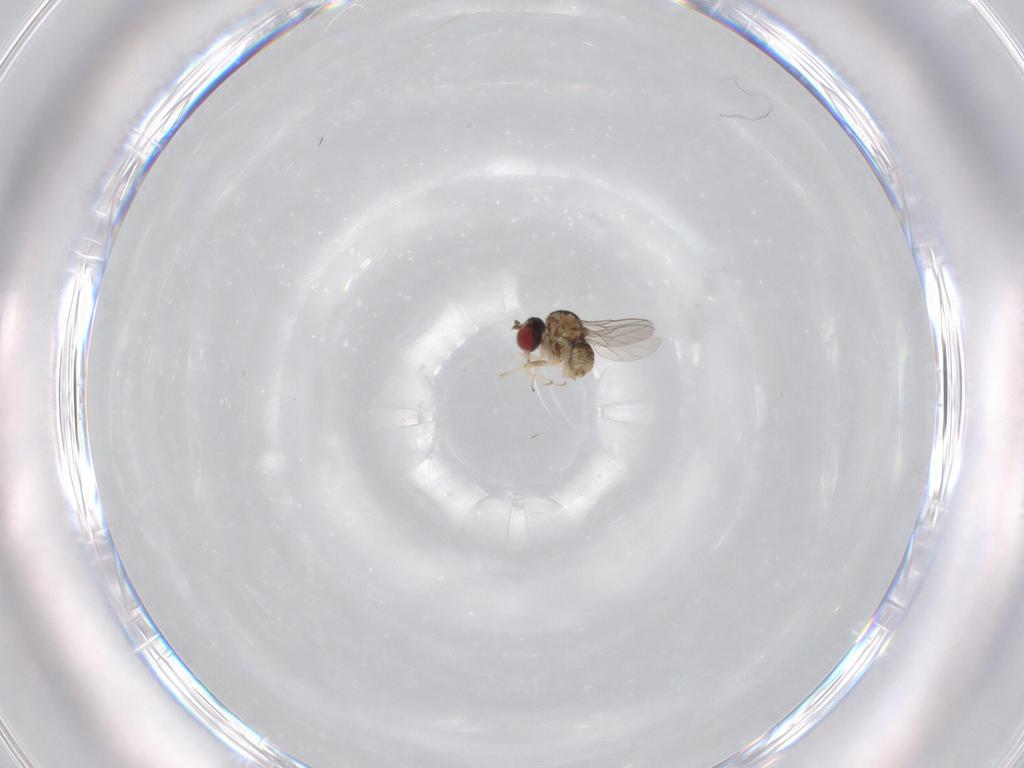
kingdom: Animalia
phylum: Arthropoda
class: Insecta
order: Diptera
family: Bombyliidae
